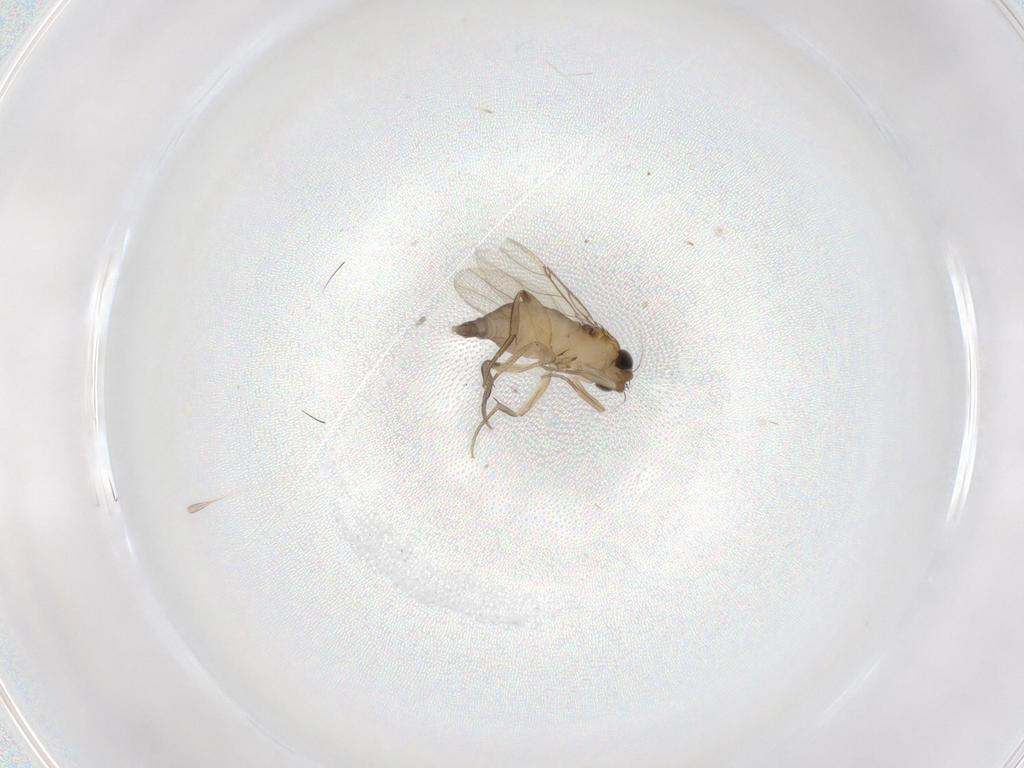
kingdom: Animalia
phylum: Arthropoda
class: Insecta
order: Diptera
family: Phoridae
